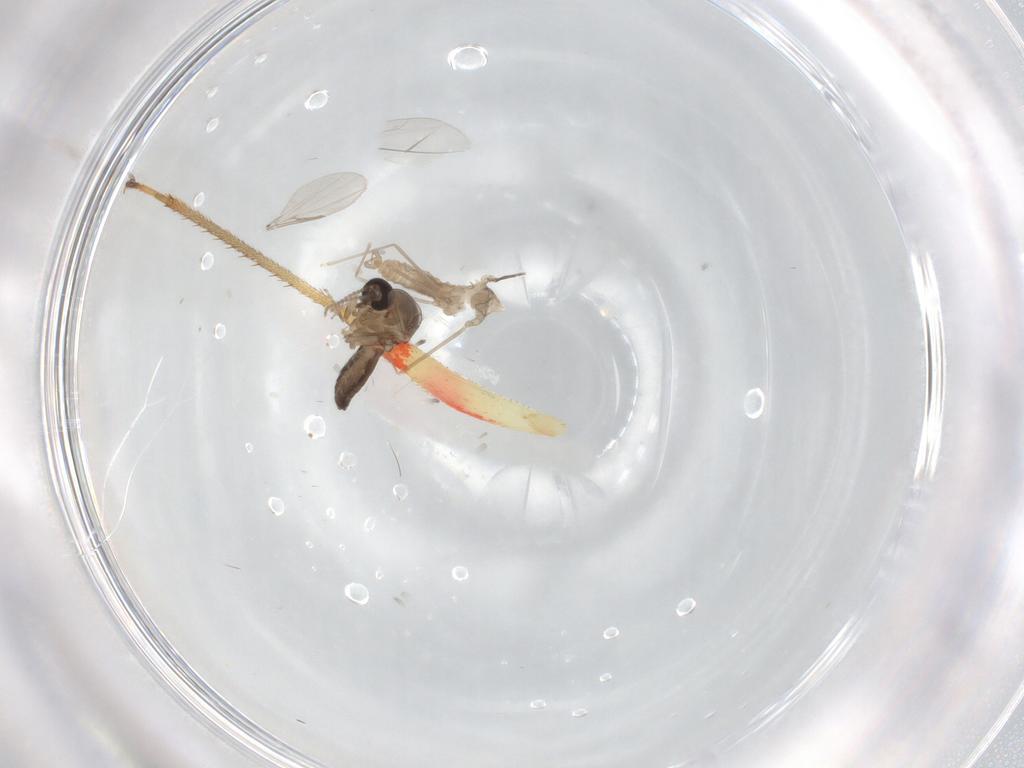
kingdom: Animalia
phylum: Arthropoda
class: Insecta
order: Diptera
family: Cecidomyiidae
